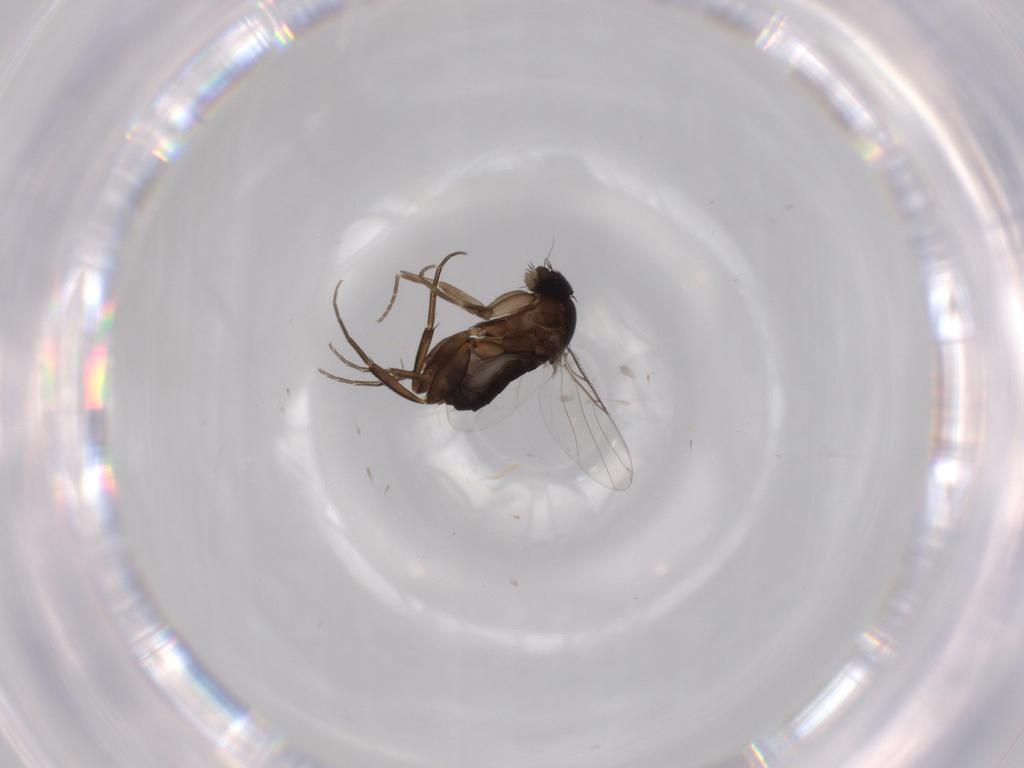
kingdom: Animalia
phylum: Arthropoda
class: Insecta
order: Diptera
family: Phoridae
